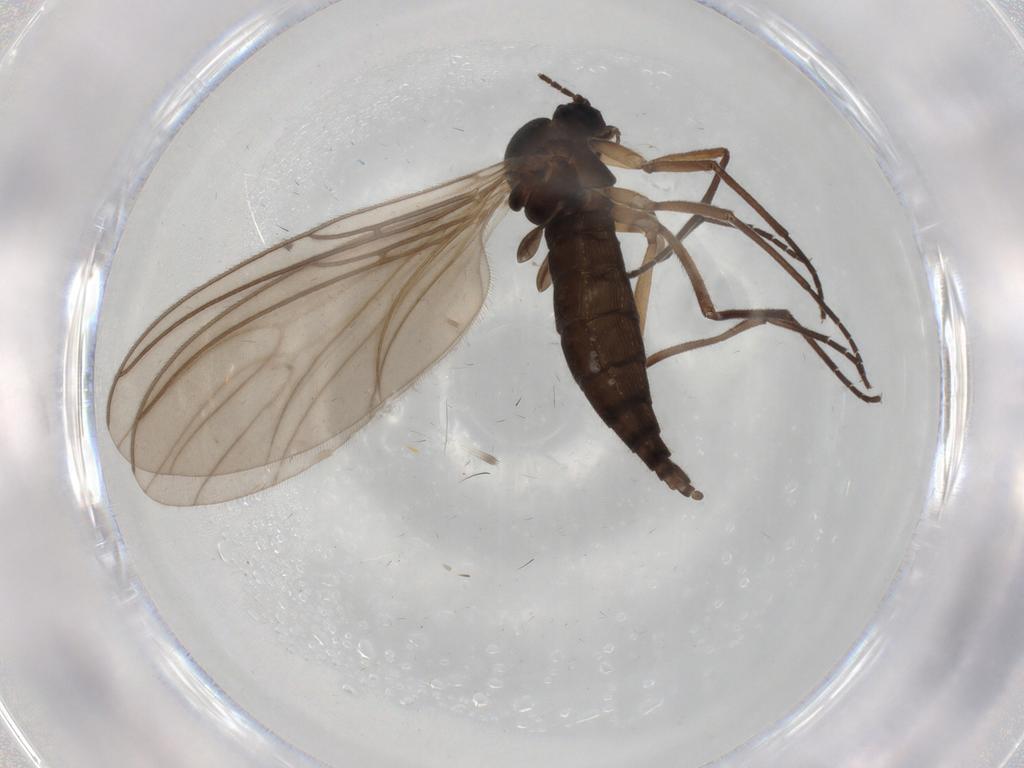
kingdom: Animalia
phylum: Arthropoda
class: Insecta
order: Diptera
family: Sciaridae
